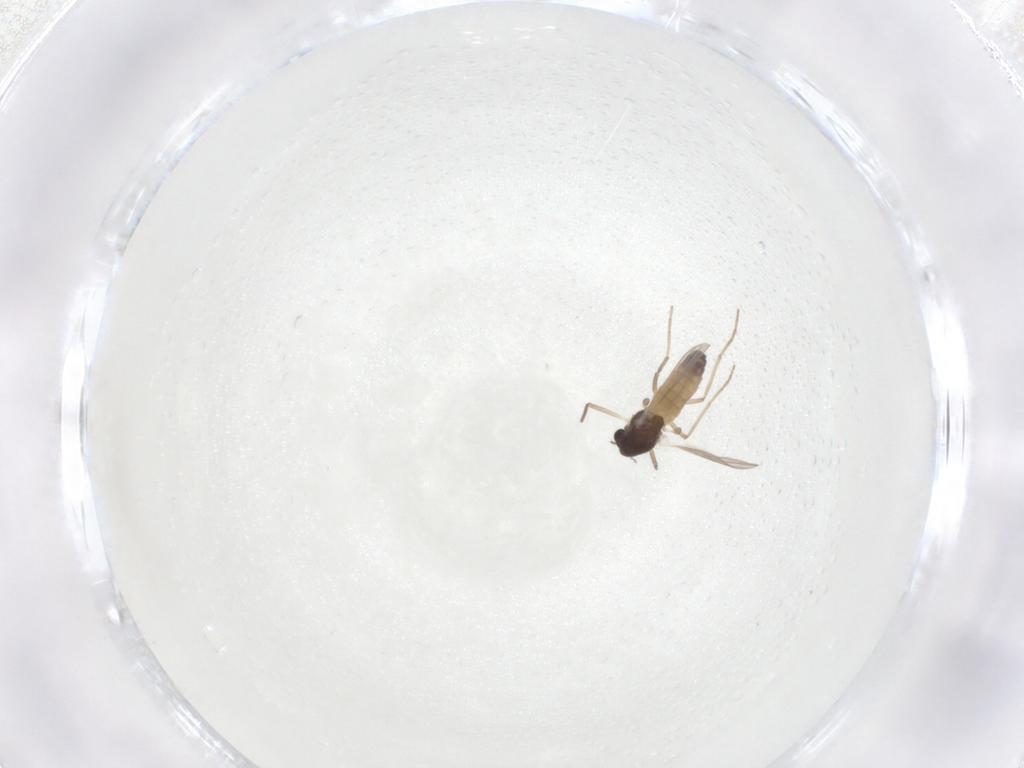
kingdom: Animalia
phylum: Arthropoda
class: Insecta
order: Diptera
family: Chironomidae
